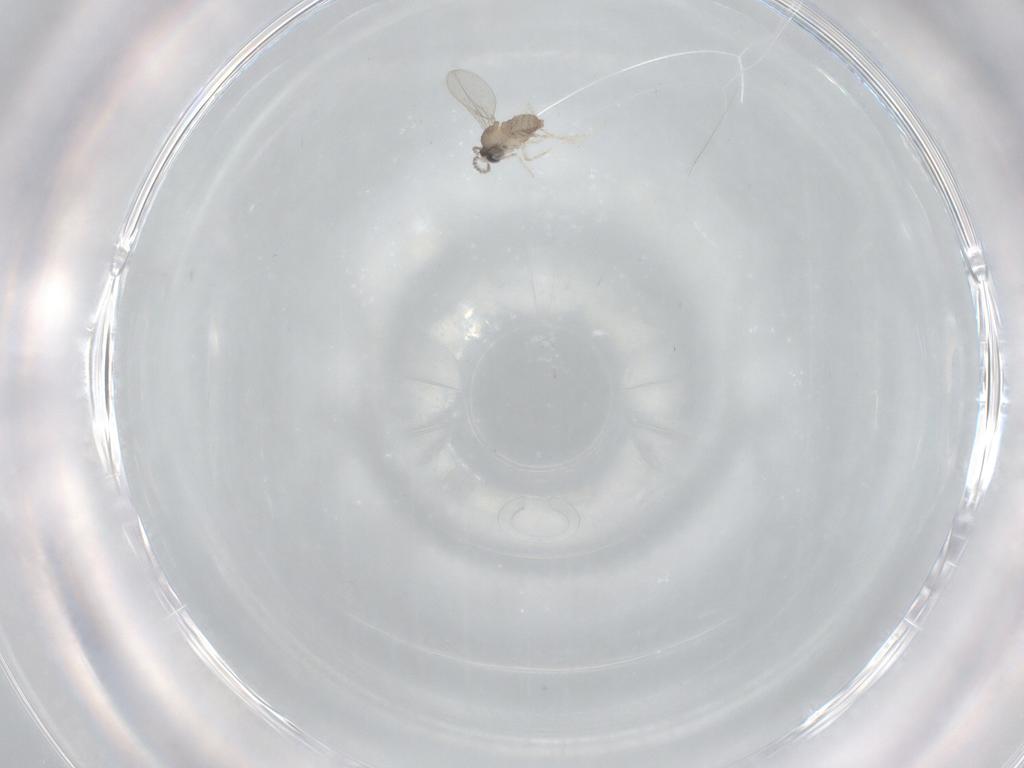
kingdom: Animalia
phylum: Arthropoda
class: Insecta
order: Diptera
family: Cecidomyiidae
